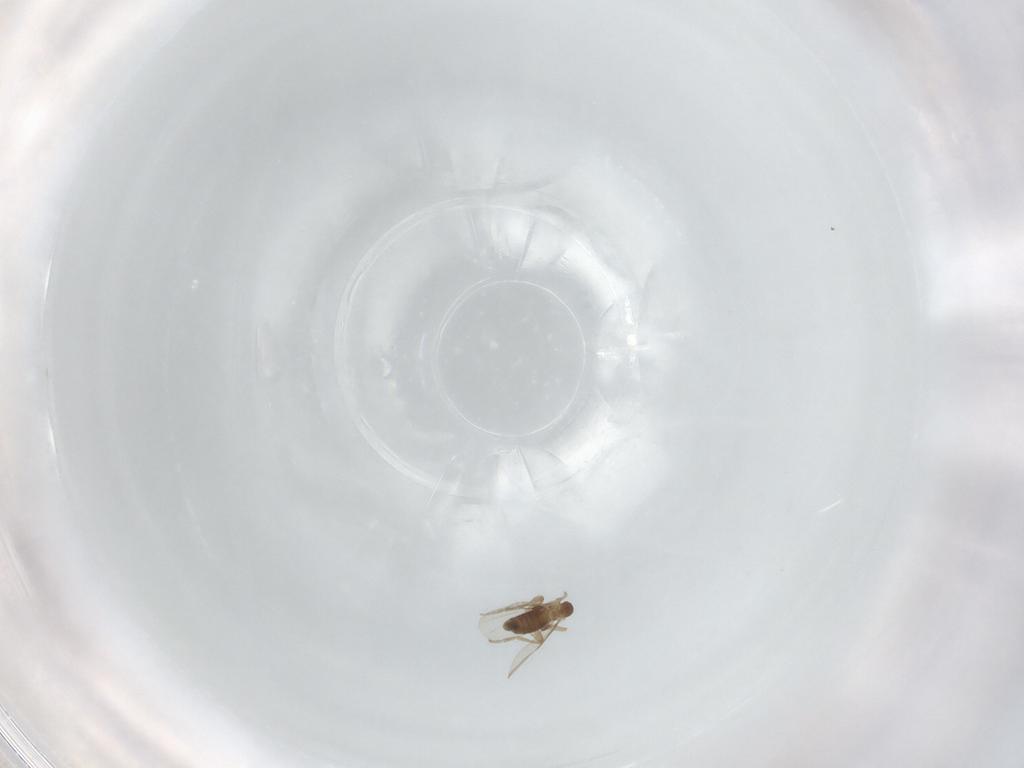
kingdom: Animalia
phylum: Arthropoda
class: Insecta
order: Diptera
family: Phoridae
